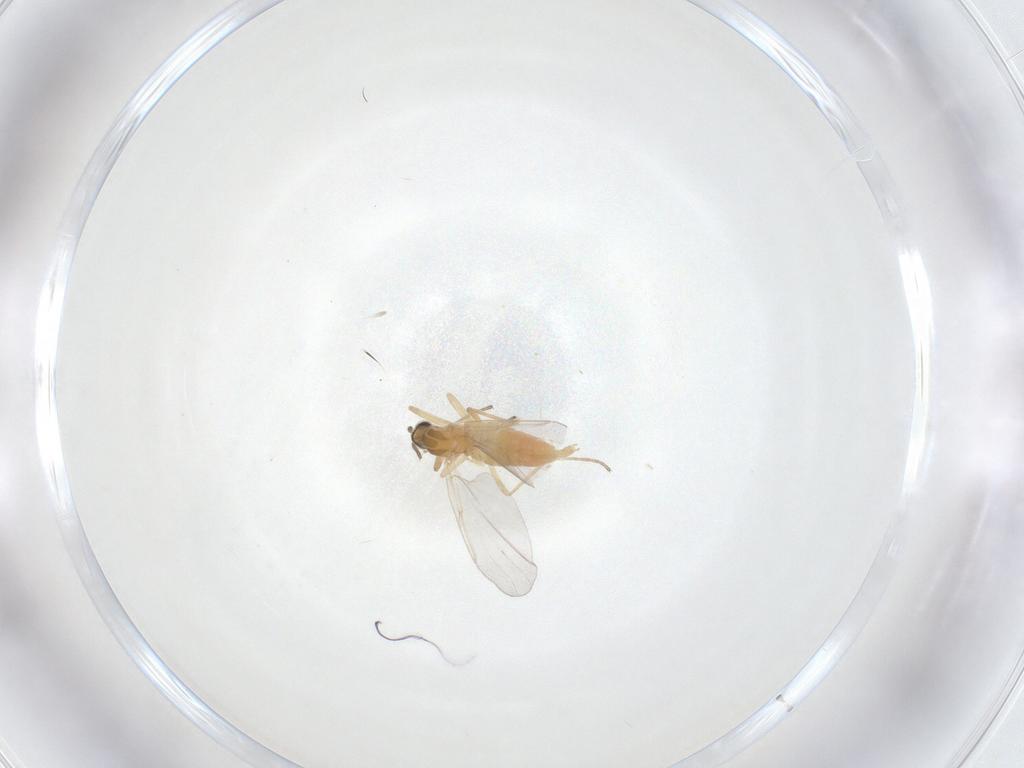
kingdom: Animalia
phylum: Arthropoda
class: Insecta
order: Diptera
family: Cecidomyiidae
